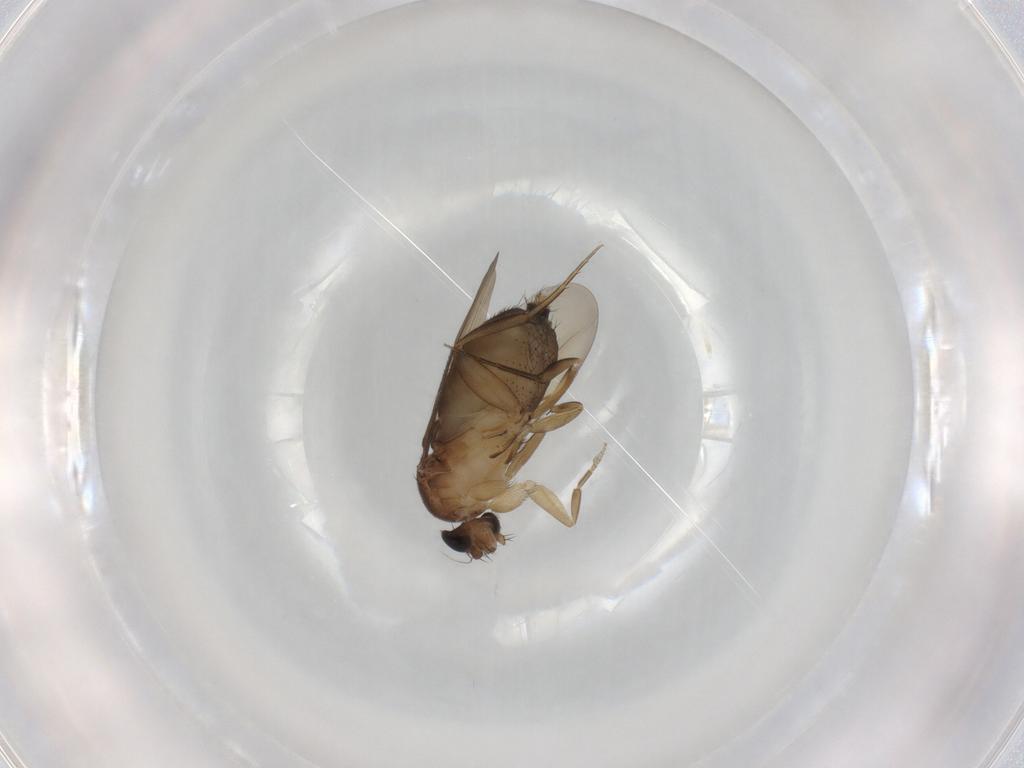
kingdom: Animalia
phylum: Arthropoda
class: Insecta
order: Diptera
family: Phoridae
